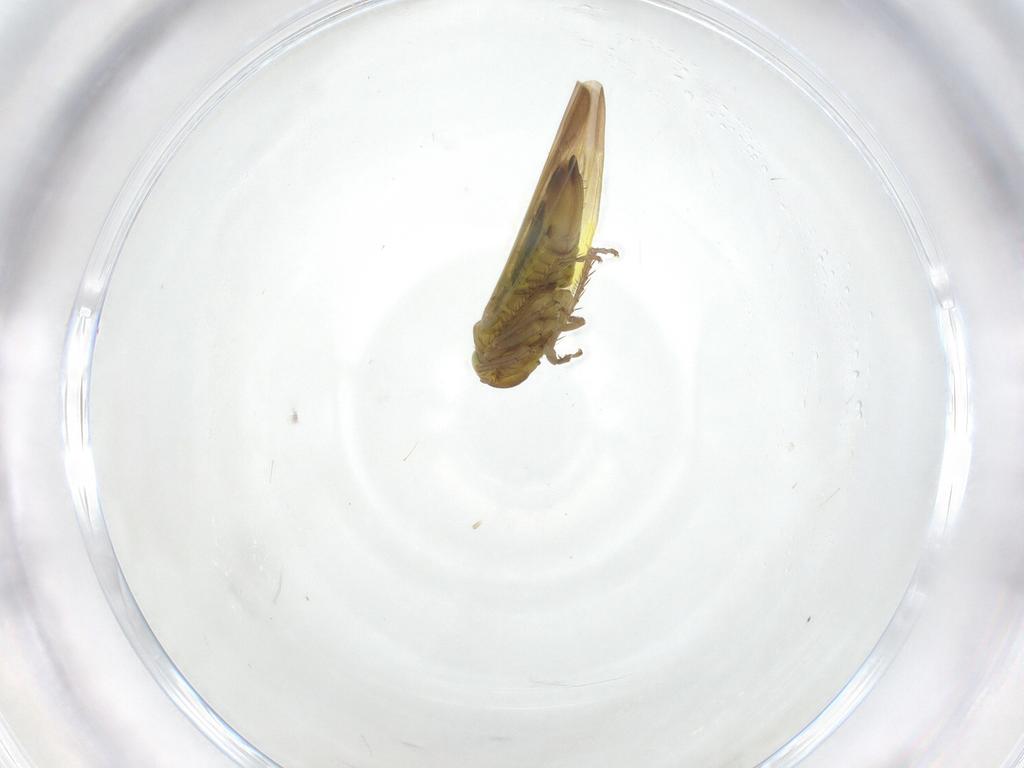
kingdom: Animalia
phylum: Arthropoda
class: Insecta
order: Hemiptera
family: Cicadellidae
